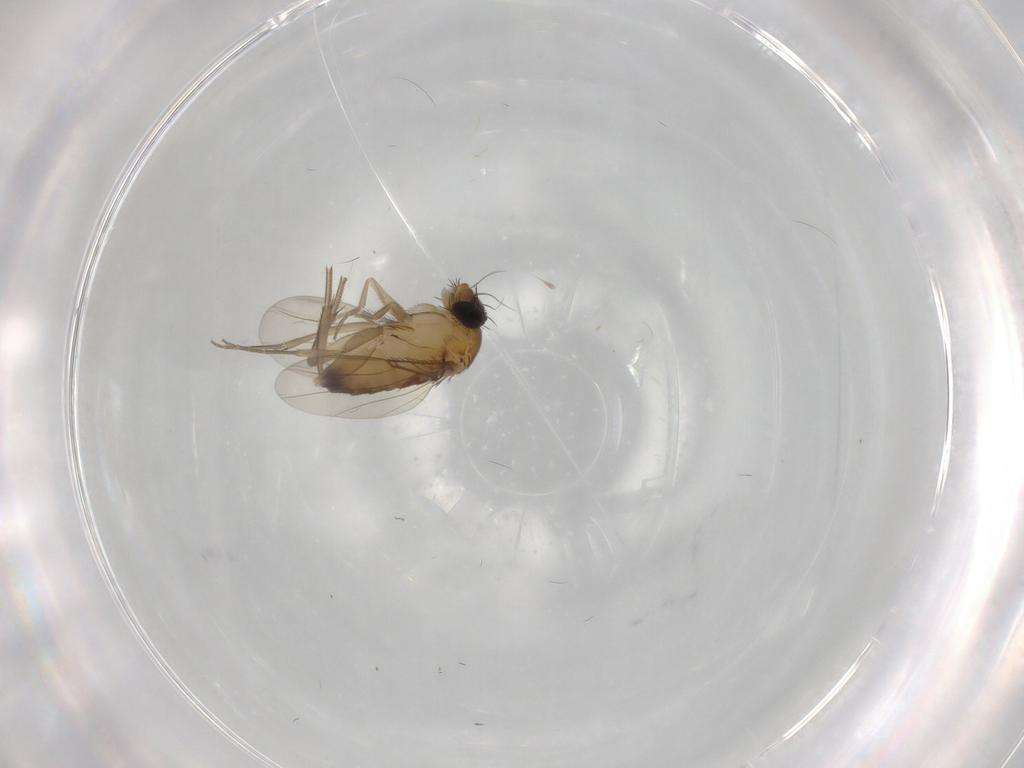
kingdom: Animalia
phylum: Arthropoda
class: Insecta
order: Diptera
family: Phoridae
